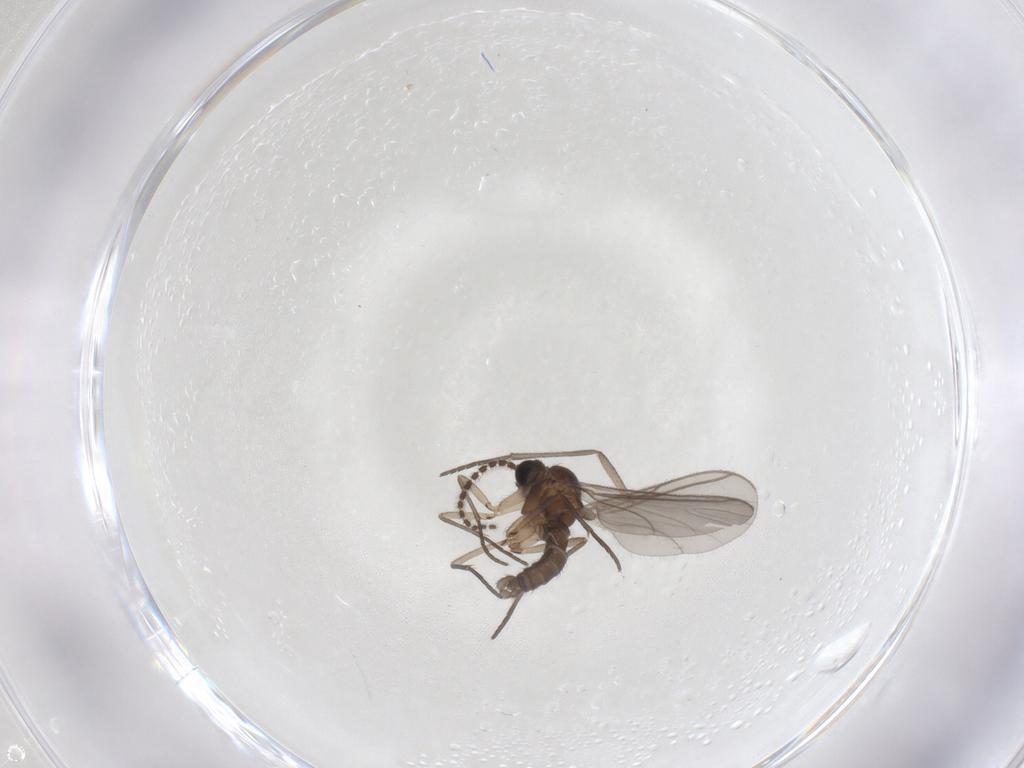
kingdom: Animalia
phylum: Arthropoda
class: Insecta
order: Diptera
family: Sciaridae
